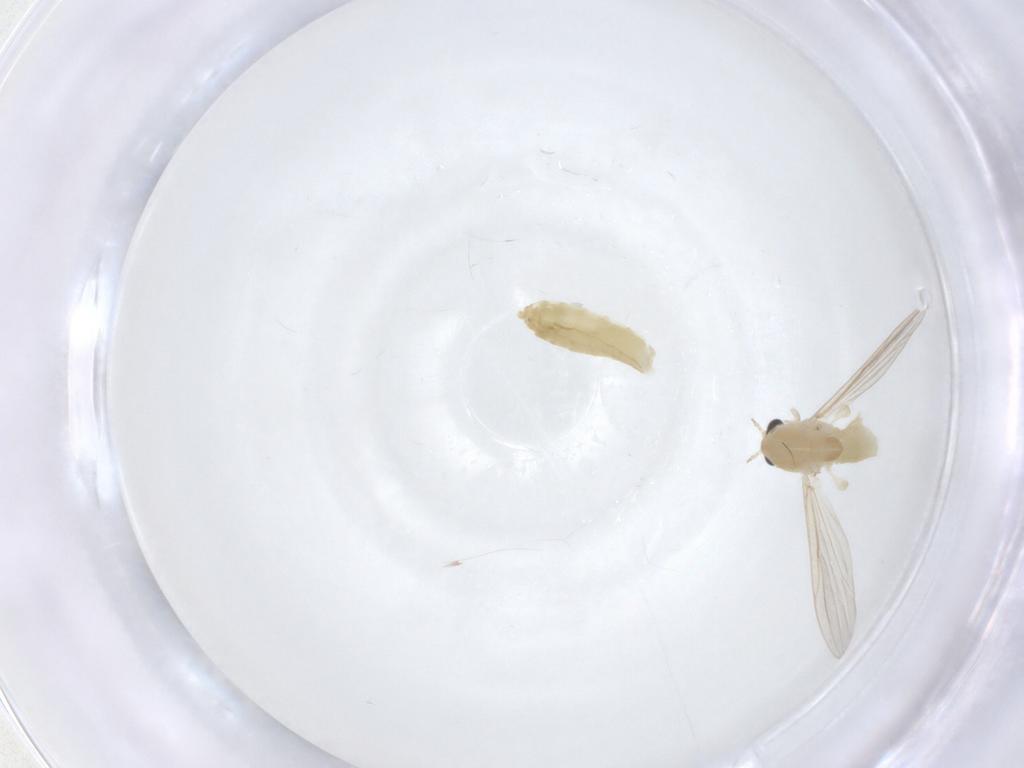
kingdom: Animalia
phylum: Arthropoda
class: Insecta
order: Diptera
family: Chironomidae
